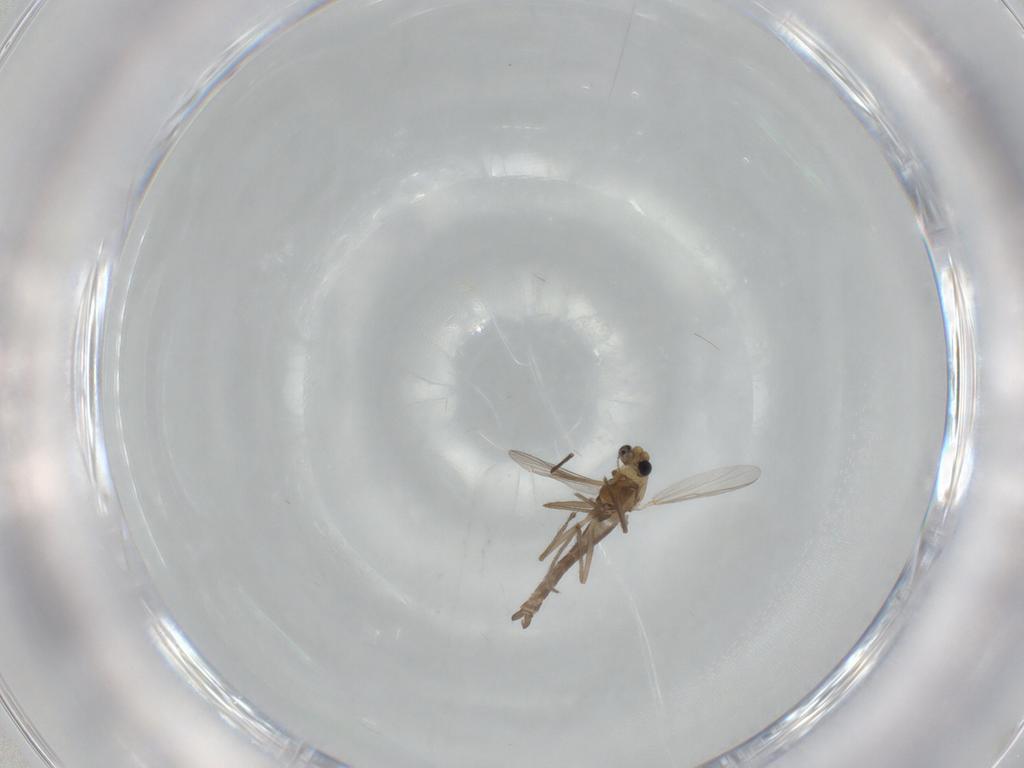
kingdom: Animalia
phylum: Arthropoda
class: Insecta
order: Diptera
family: Chironomidae
